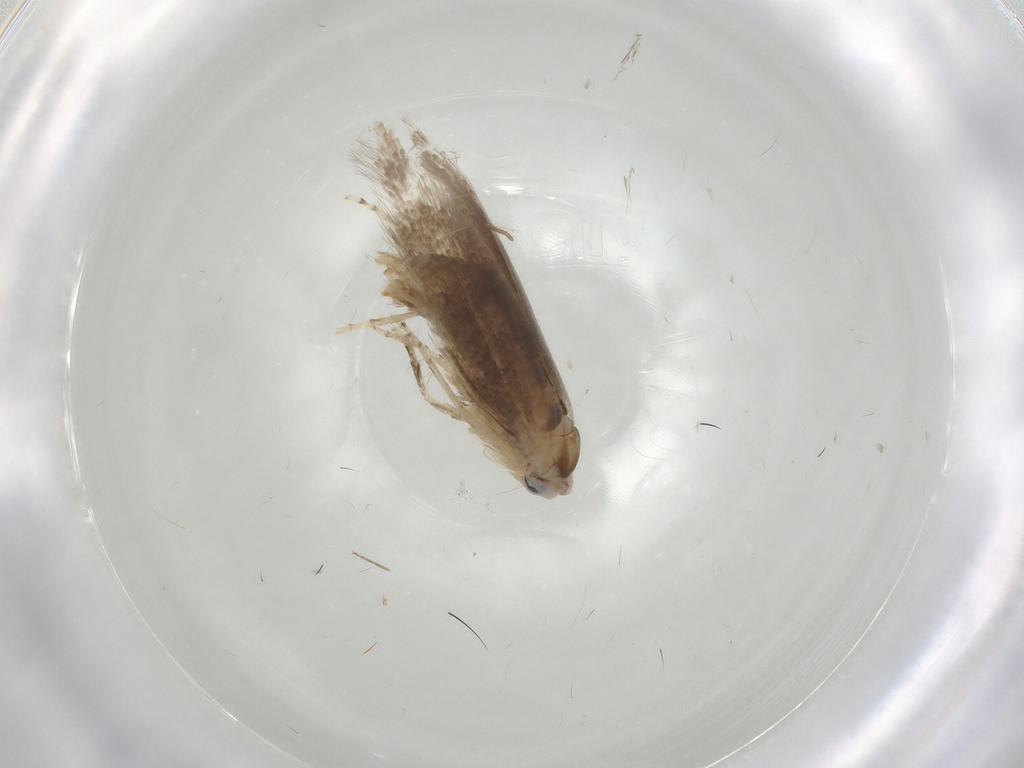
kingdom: Animalia
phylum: Arthropoda
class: Insecta
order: Lepidoptera
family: Bucculatricidae
